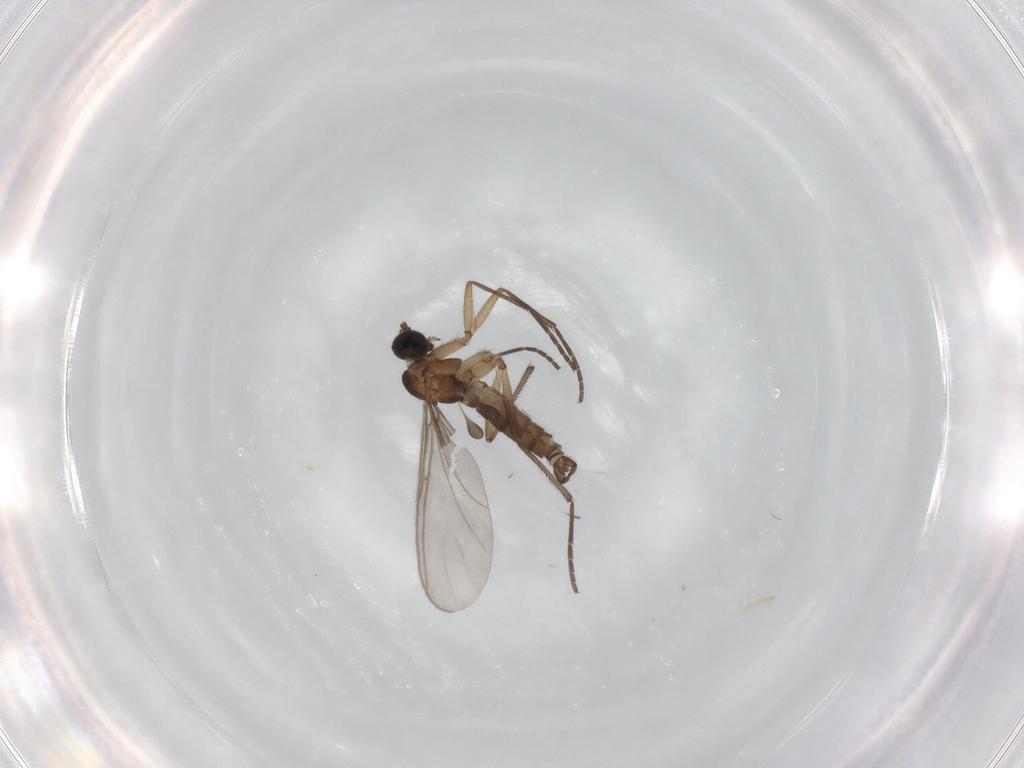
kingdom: Animalia
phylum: Arthropoda
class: Insecta
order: Diptera
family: Sciaridae
